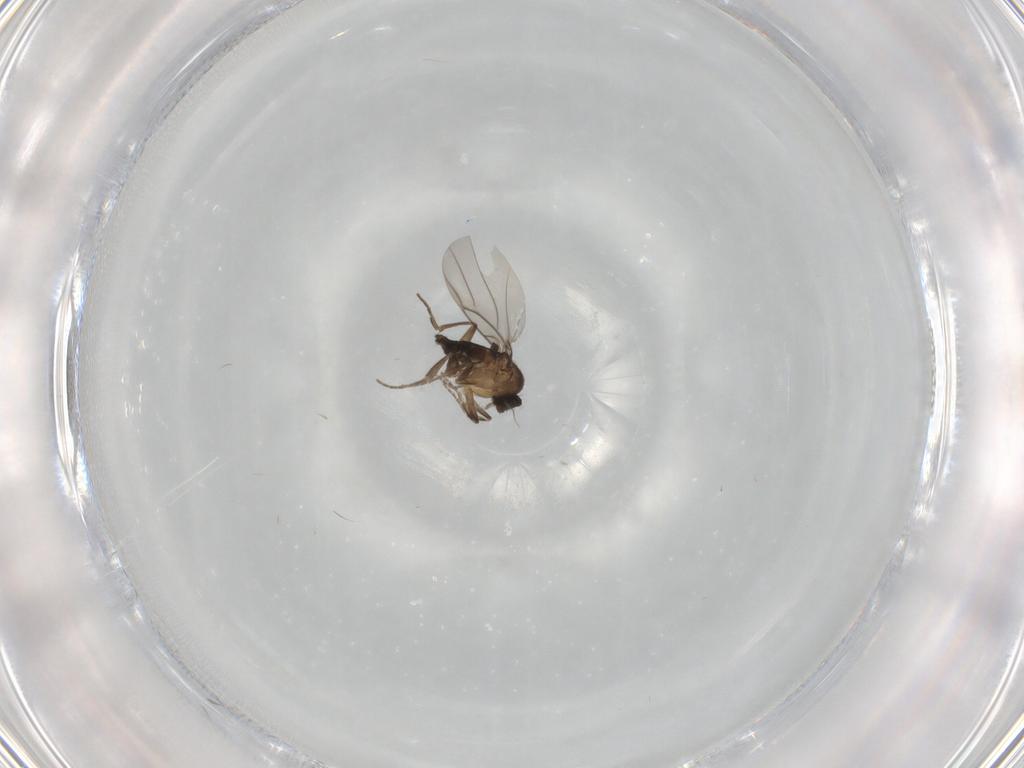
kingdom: Animalia
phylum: Arthropoda
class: Insecta
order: Diptera
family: Phoridae
